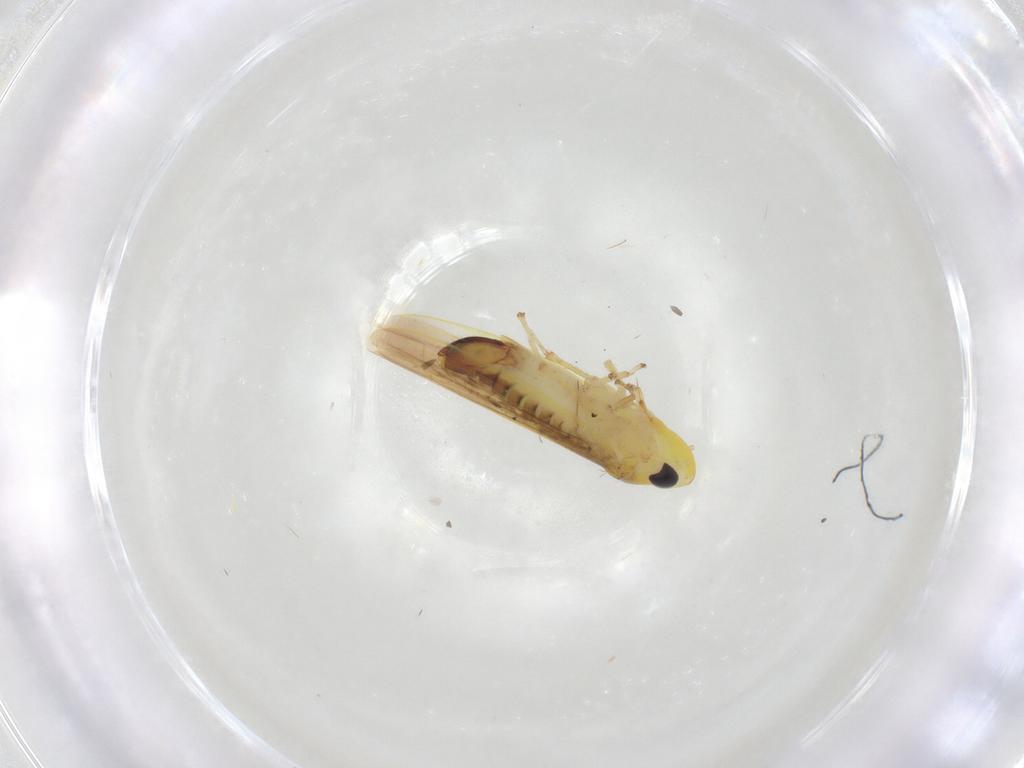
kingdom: Animalia
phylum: Arthropoda
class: Insecta
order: Hemiptera
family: Cicadellidae
